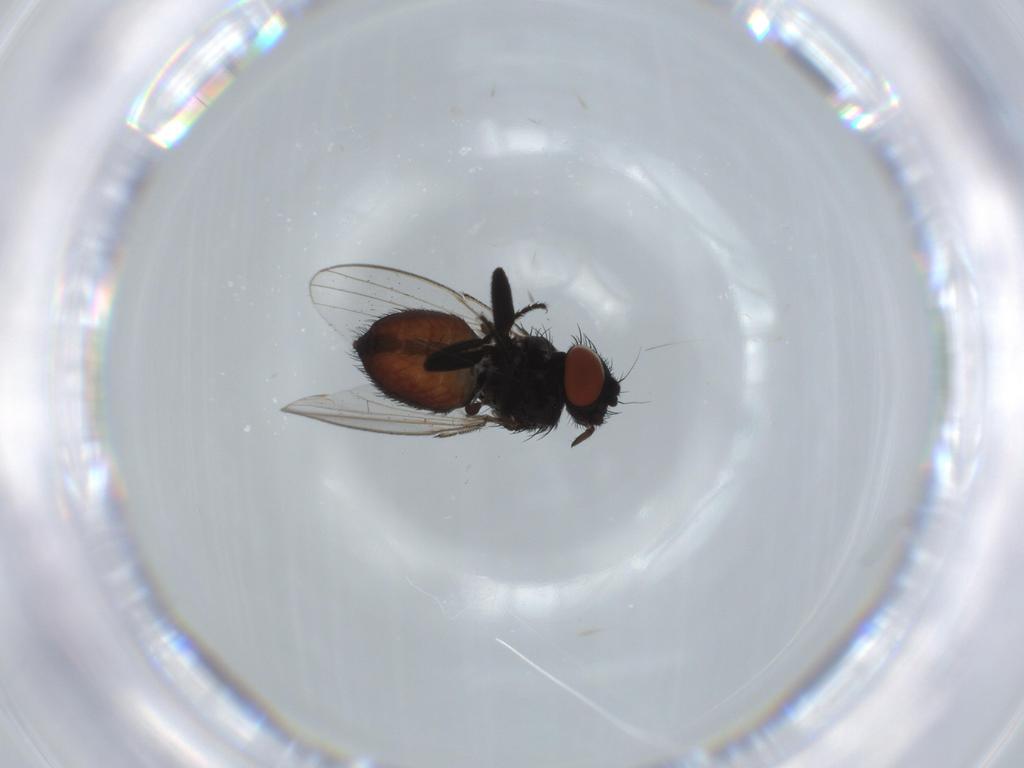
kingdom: Animalia
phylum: Arthropoda
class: Insecta
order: Diptera
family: Milichiidae
